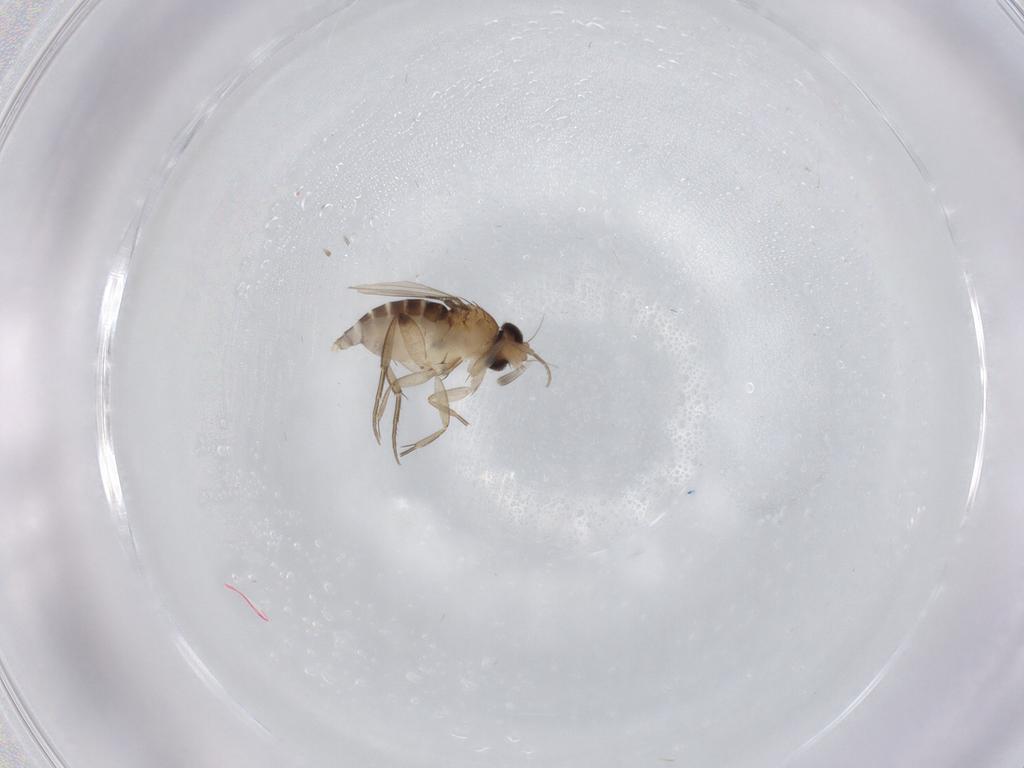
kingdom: Animalia
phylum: Arthropoda
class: Insecta
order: Diptera
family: Phoridae
